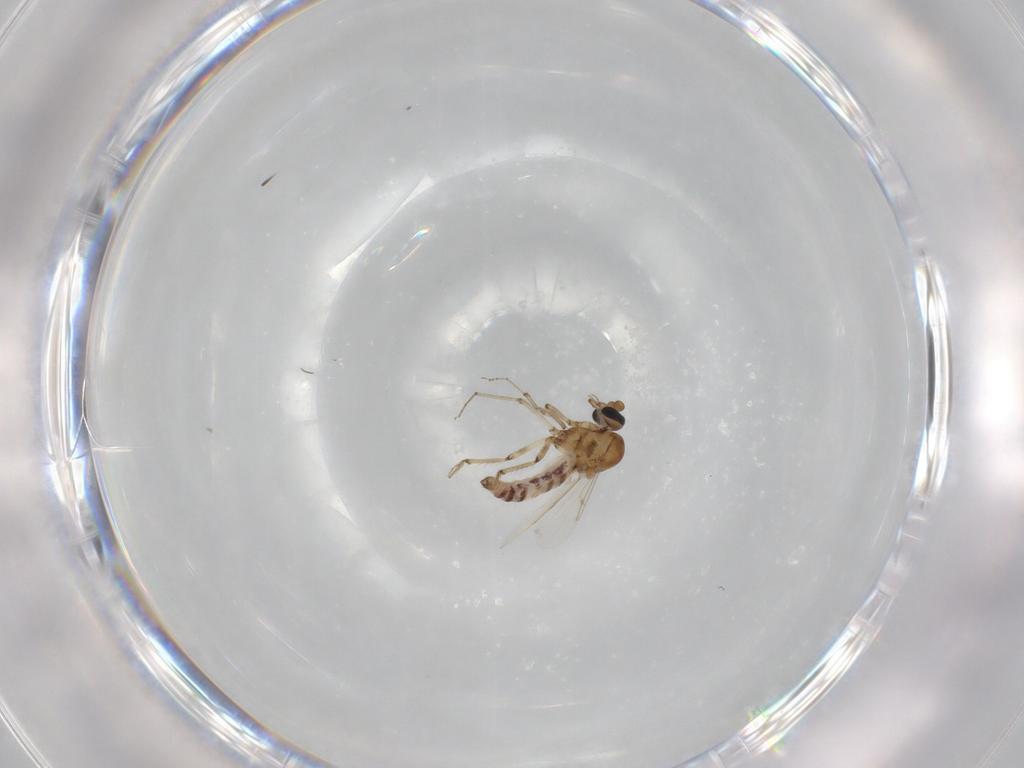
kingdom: Animalia
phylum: Arthropoda
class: Insecta
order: Diptera
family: Ceratopogonidae
